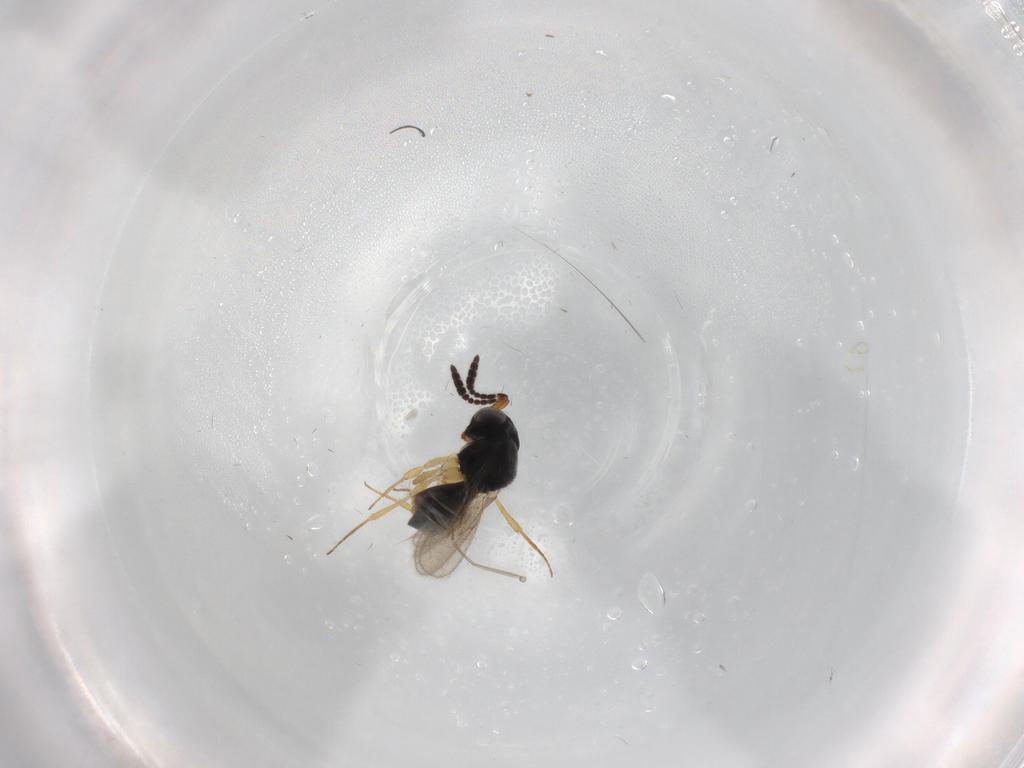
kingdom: Animalia
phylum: Arthropoda
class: Insecta
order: Hymenoptera
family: Scelionidae
